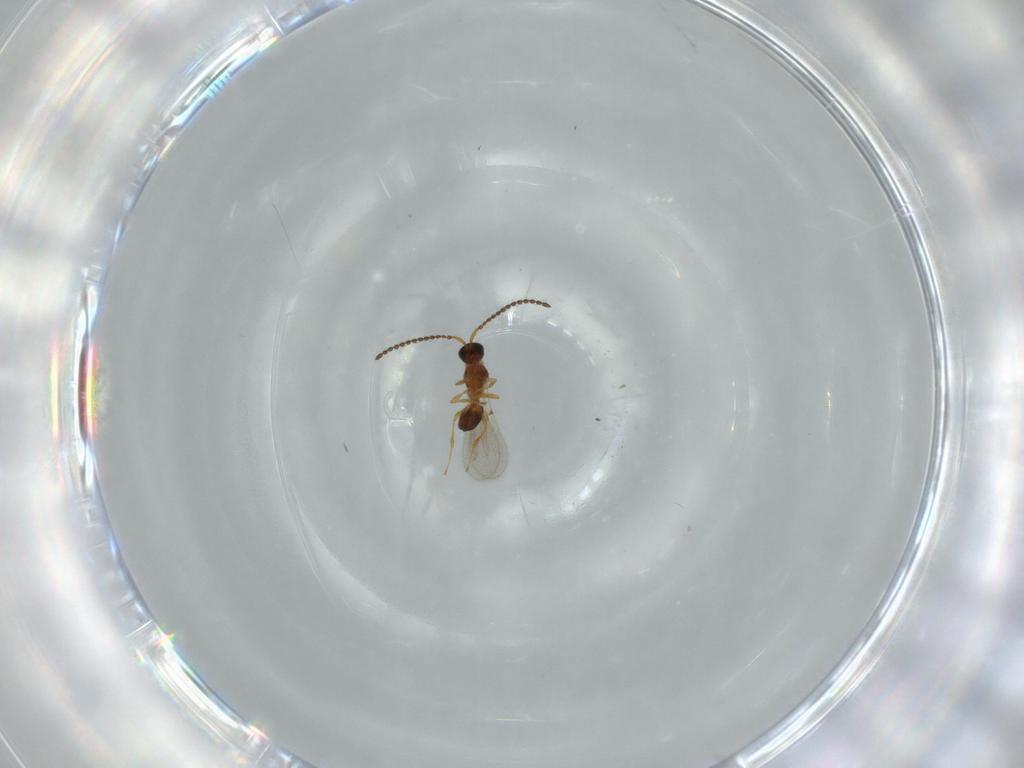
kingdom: Animalia
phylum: Arthropoda
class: Insecta
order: Hymenoptera
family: Diapriidae
